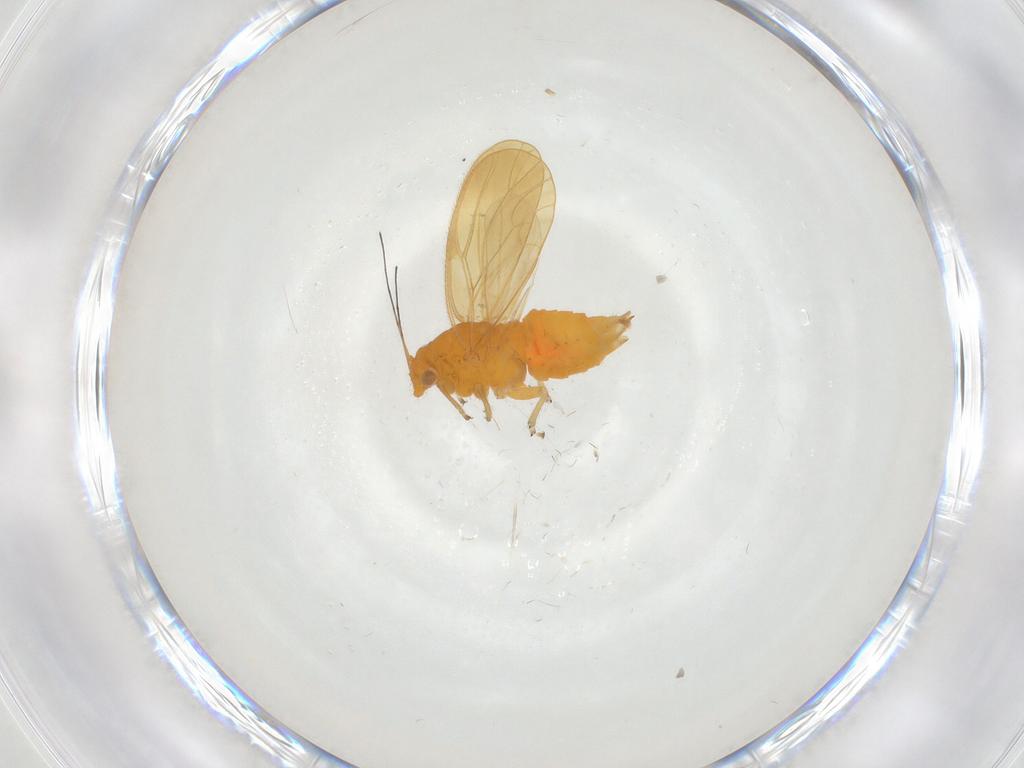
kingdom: Animalia
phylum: Arthropoda
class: Insecta
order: Hemiptera
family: Psyllidae
